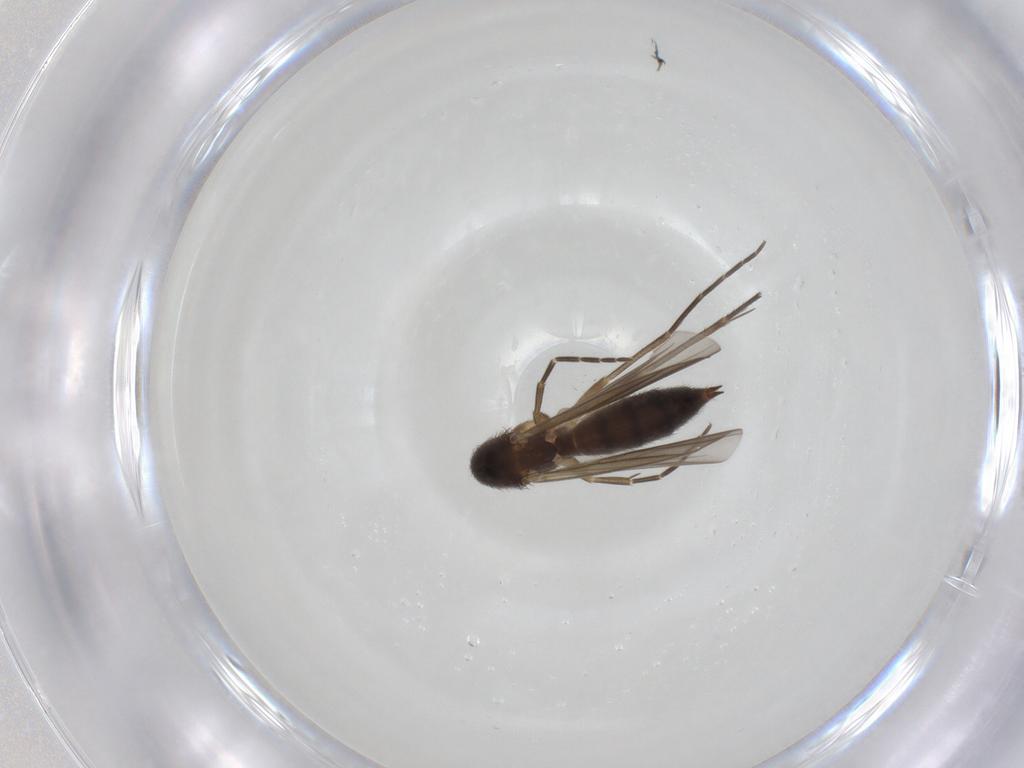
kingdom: Animalia
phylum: Arthropoda
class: Insecta
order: Diptera
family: Mycetophilidae
